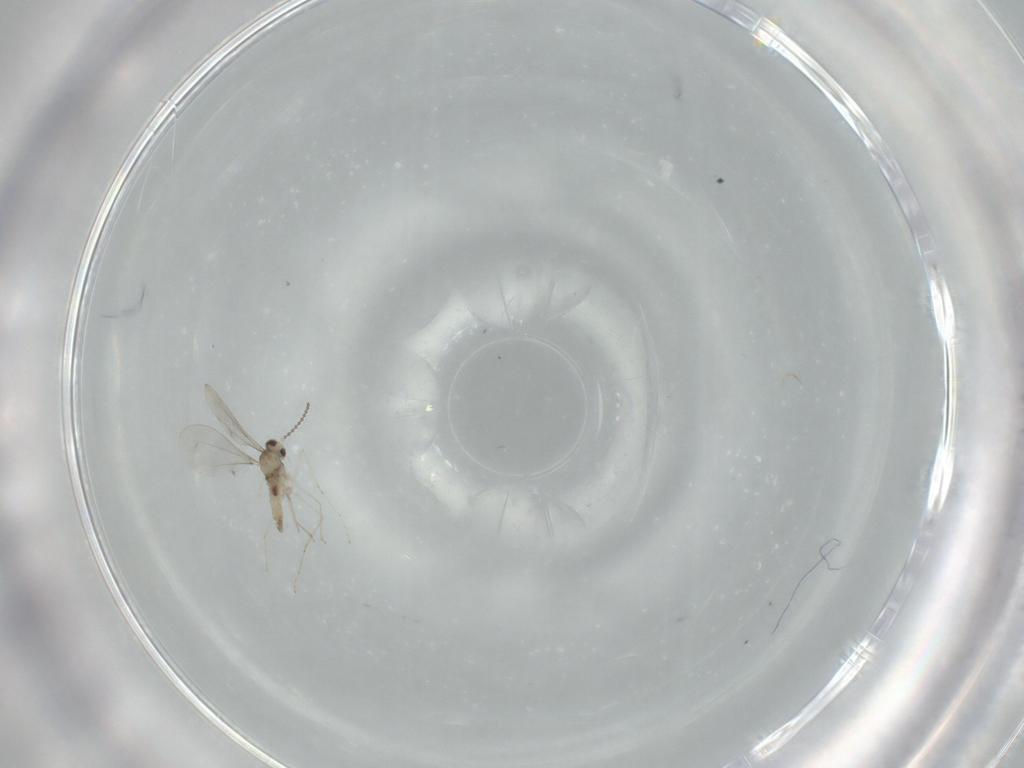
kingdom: Animalia
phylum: Arthropoda
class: Insecta
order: Diptera
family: Cecidomyiidae
